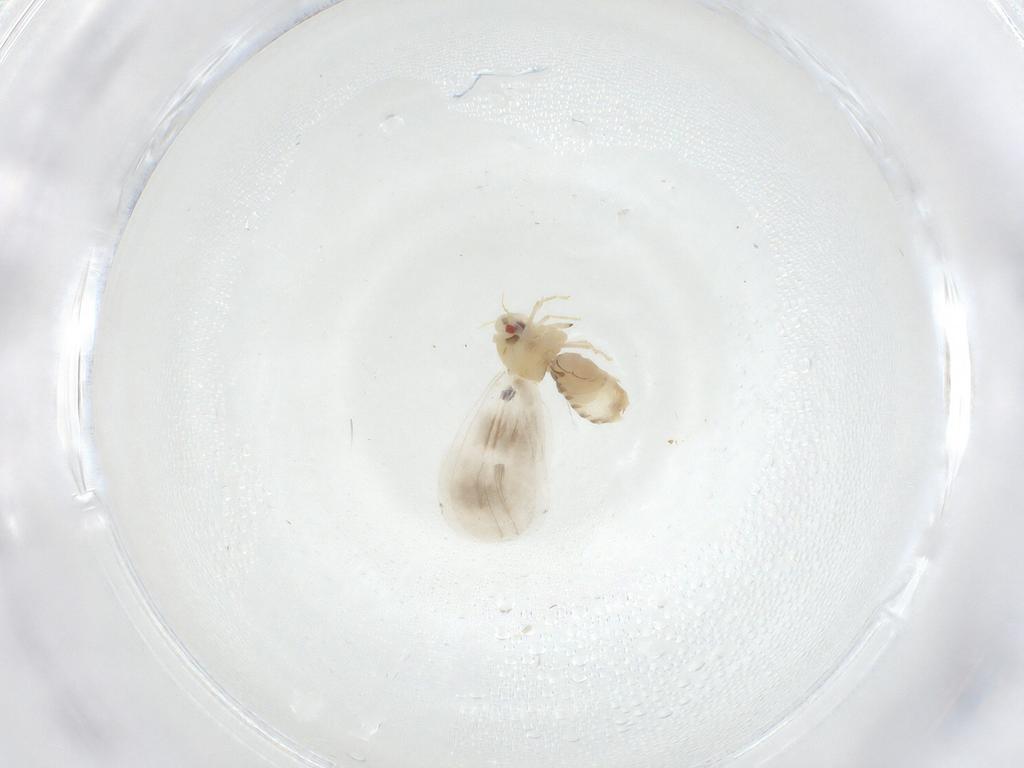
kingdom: Animalia
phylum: Arthropoda
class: Insecta
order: Hemiptera
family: Aleyrodidae
